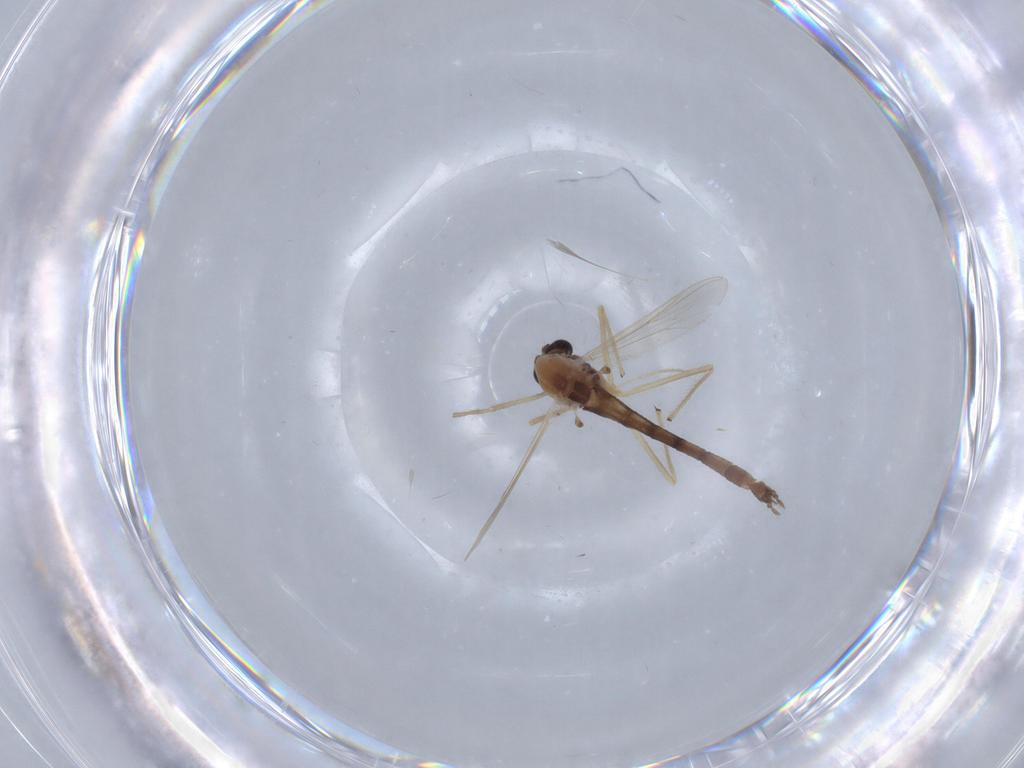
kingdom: Animalia
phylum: Arthropoda
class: Insecta
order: Diptera
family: Chironomidae
